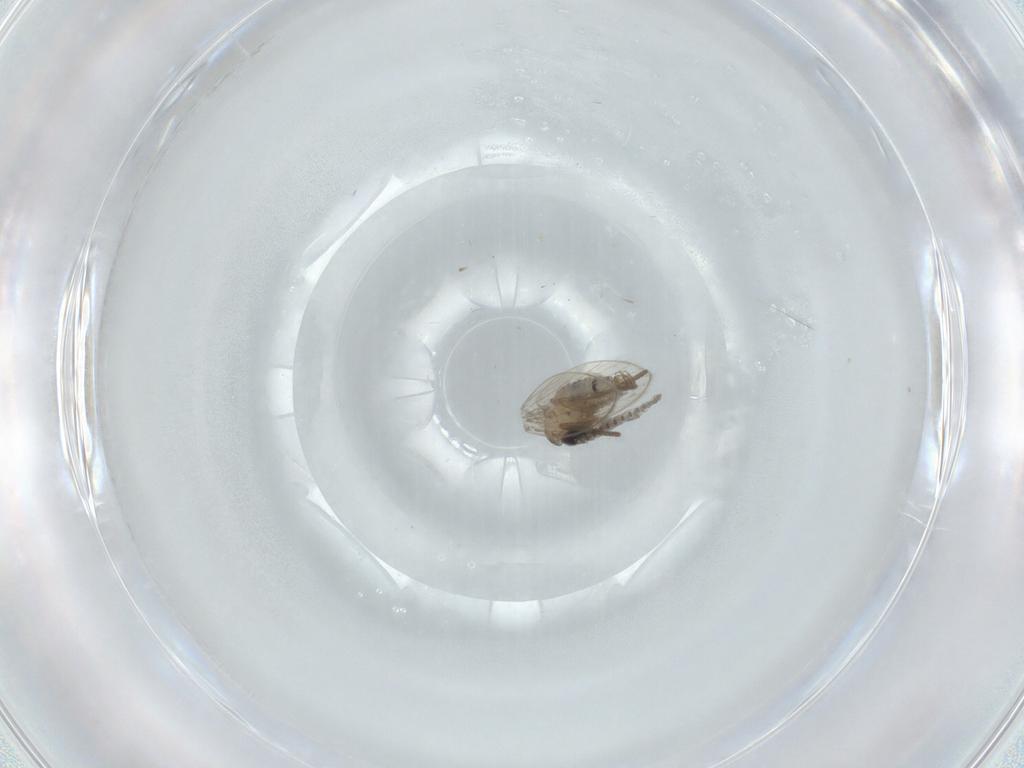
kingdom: Animalia
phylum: Arthropoda
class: Insecta
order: Diptera
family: Psychodidae
